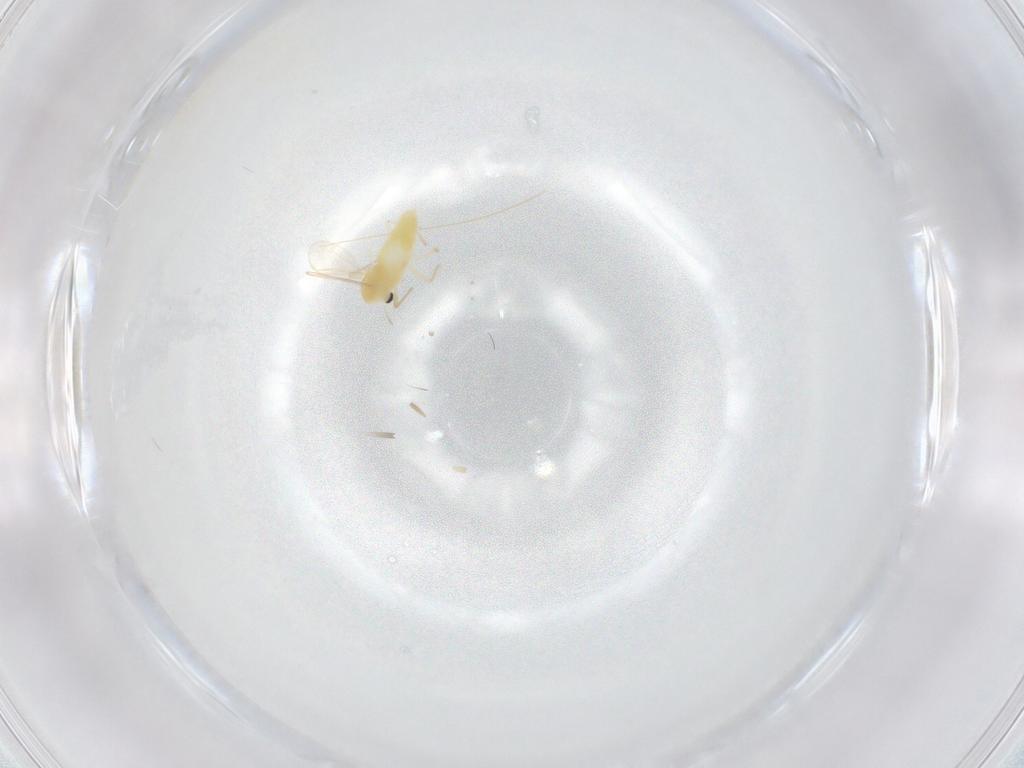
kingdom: Animalia
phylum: Arthropoda
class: Insecta
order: Diptera
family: Chironomidae
